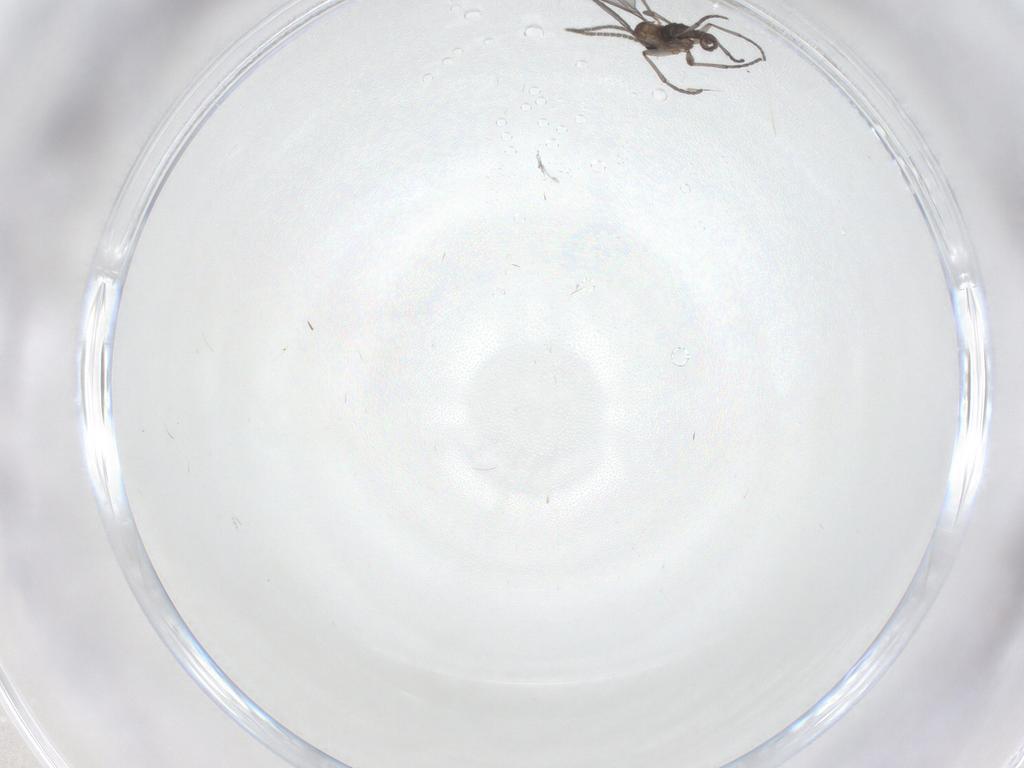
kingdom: Animalia
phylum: Arthropoda
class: Insecta
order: Diptera
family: Sciaridae
